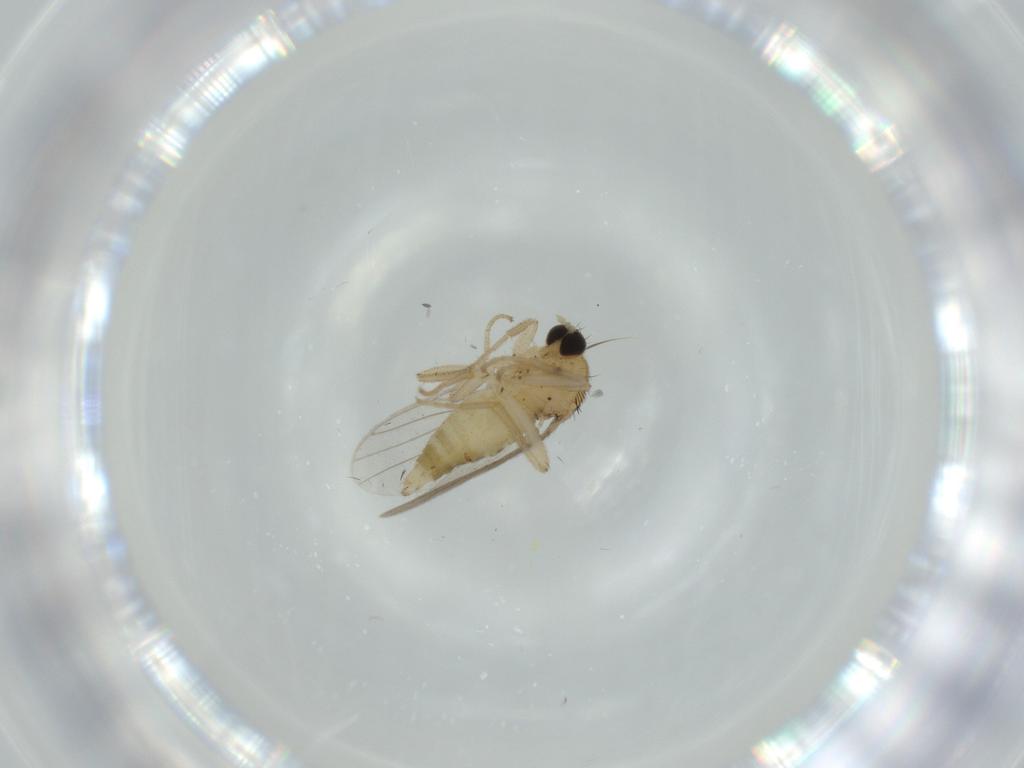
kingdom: Animalia
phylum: Arthropoda
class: Insecta
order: Diptera
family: Hybotidae
